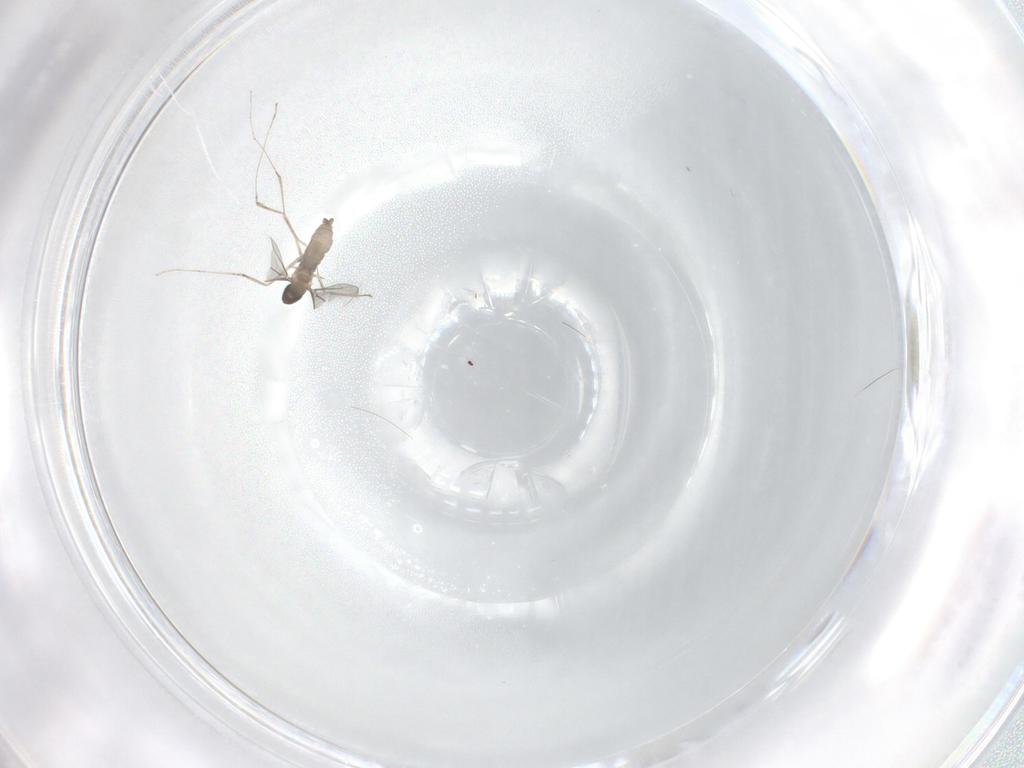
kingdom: Animalia
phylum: Arthropoda
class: Insecta
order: Diptera
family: Cecidomyiidae
